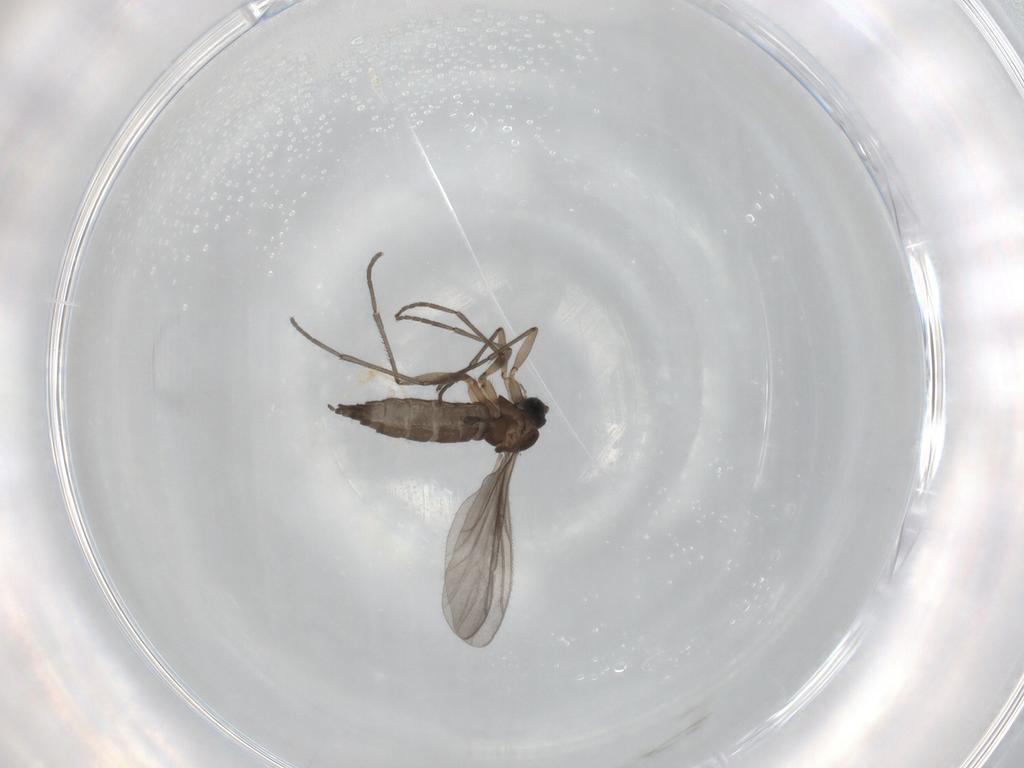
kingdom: Animalia
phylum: Arthropoda
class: Insecta
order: Diptera
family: Sciaridae
